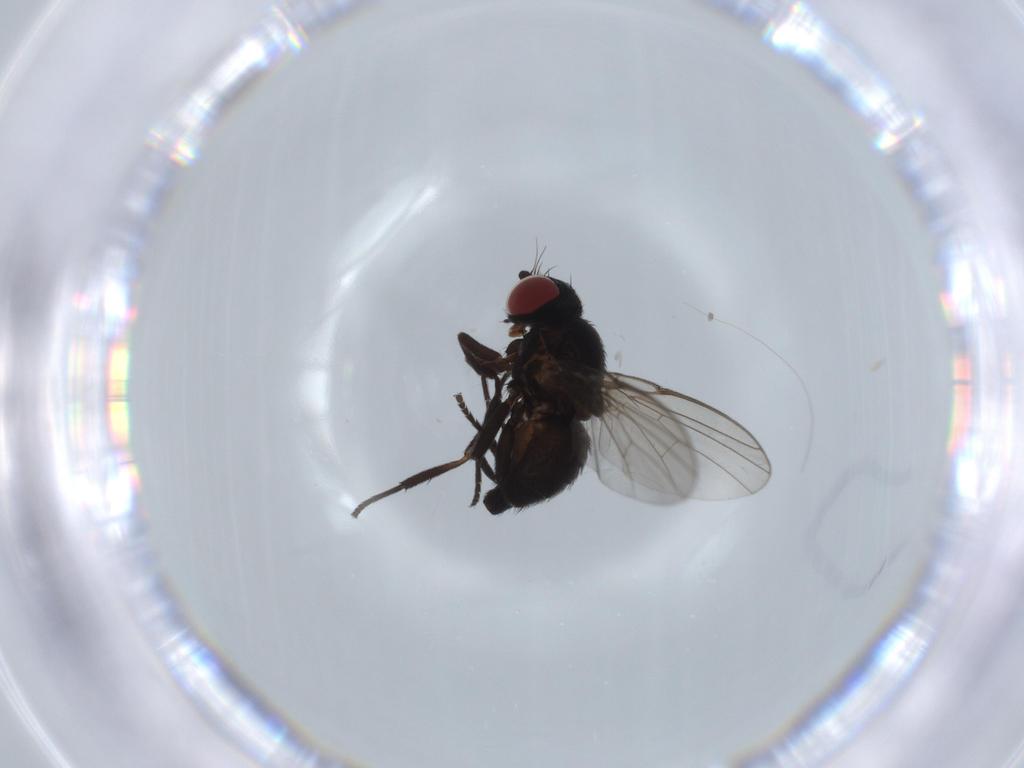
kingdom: Animalia
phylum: Arthropoda
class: Insecta
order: Diptera
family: Agromyzidae
